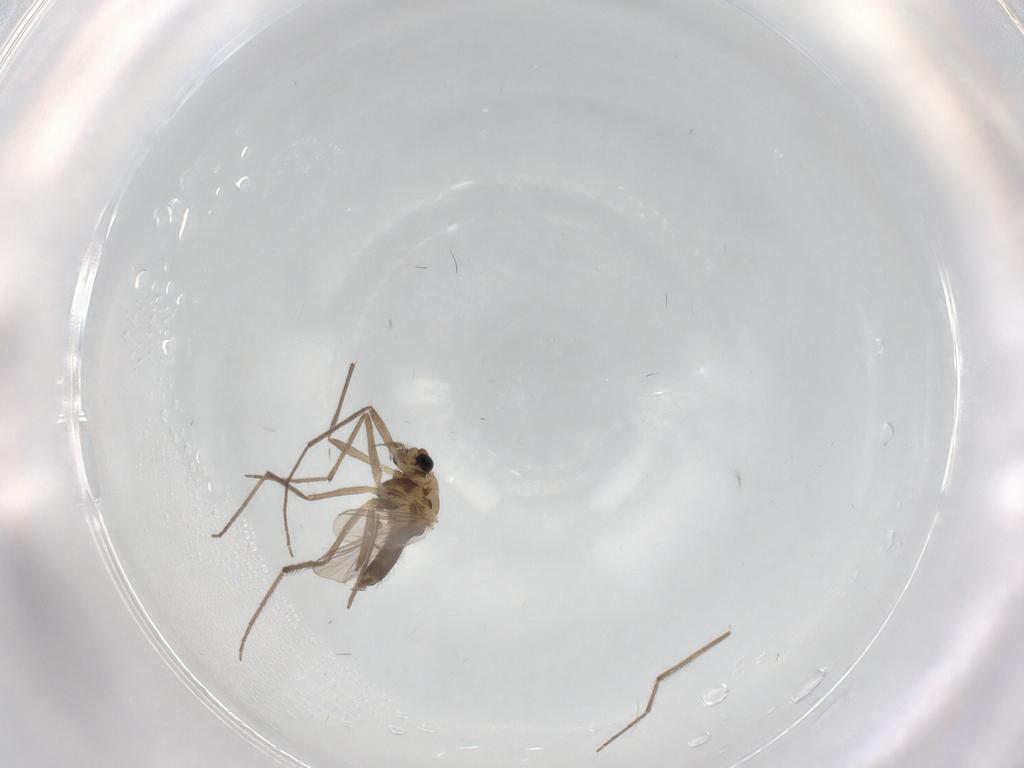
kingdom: Animalia
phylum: Arthropoda
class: Insecta
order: Diptera
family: Chironomidae
